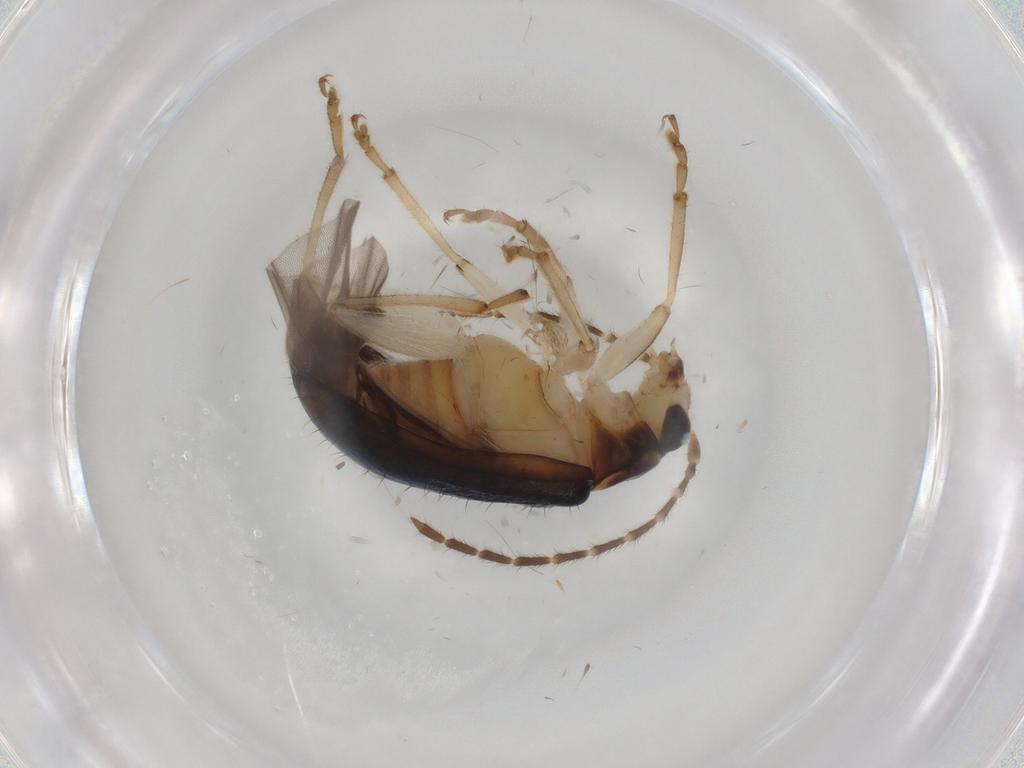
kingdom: Animalia
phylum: Arthropoda
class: Insecta
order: Coleoptera
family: Chrysomelidae
